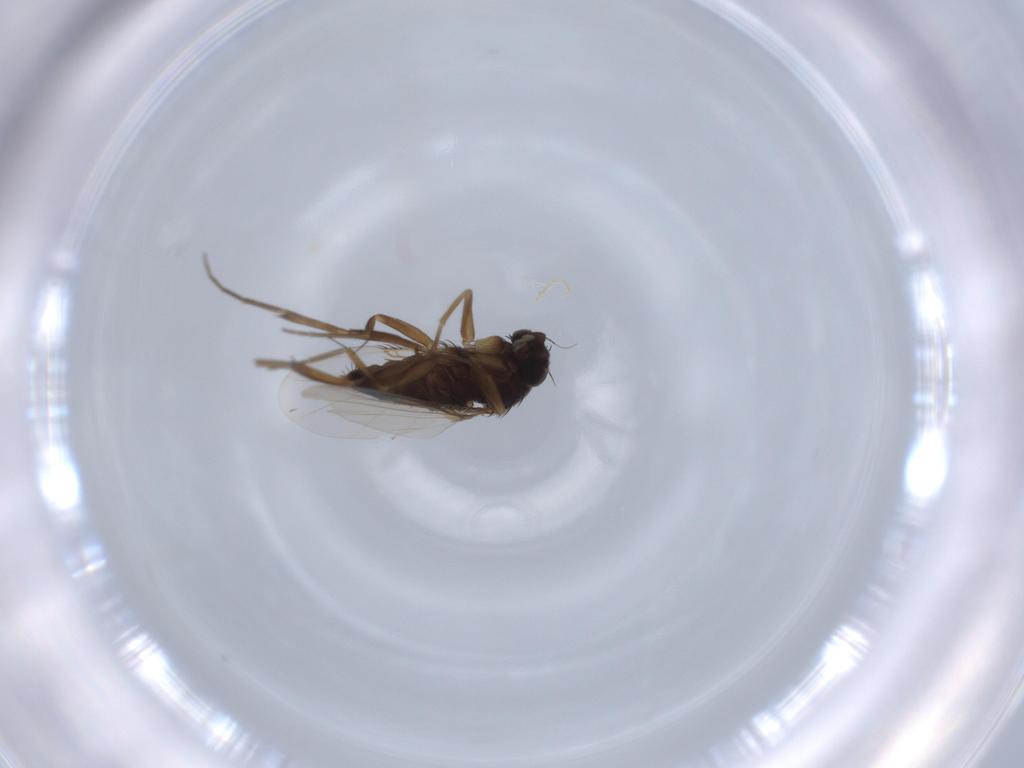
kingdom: Animalia
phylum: Arthropoda
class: Insecta
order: Diptera
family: Phoridae
